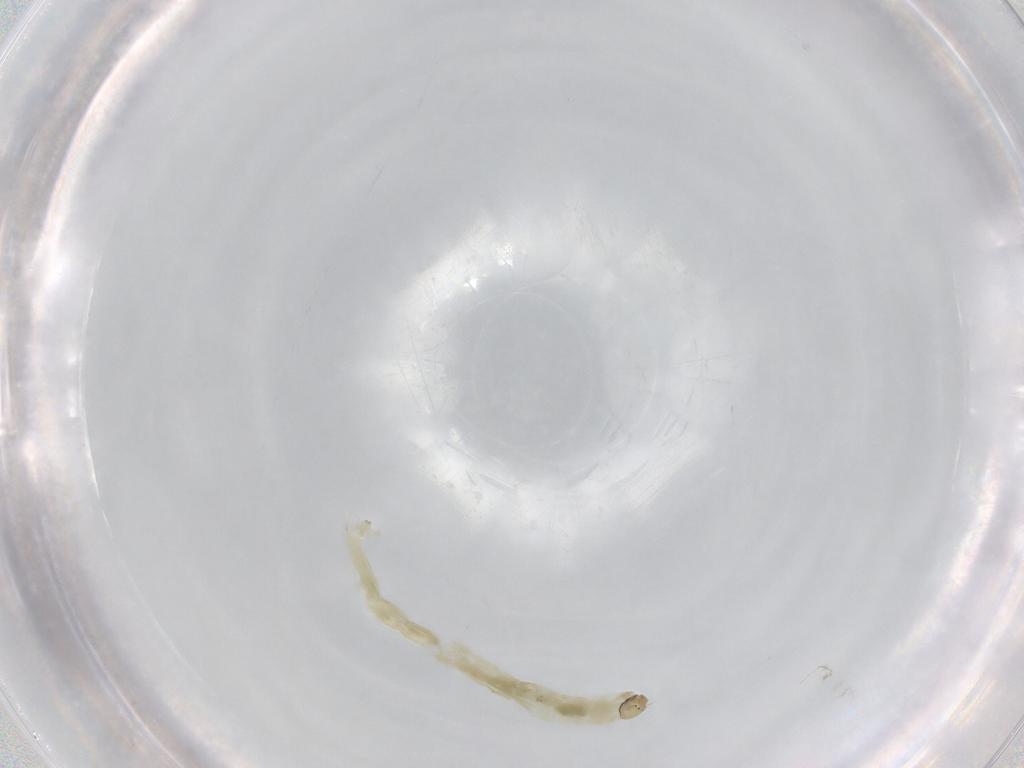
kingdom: Animalia
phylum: Arthropoda
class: Insecta
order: Diptera
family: Chironomidae
